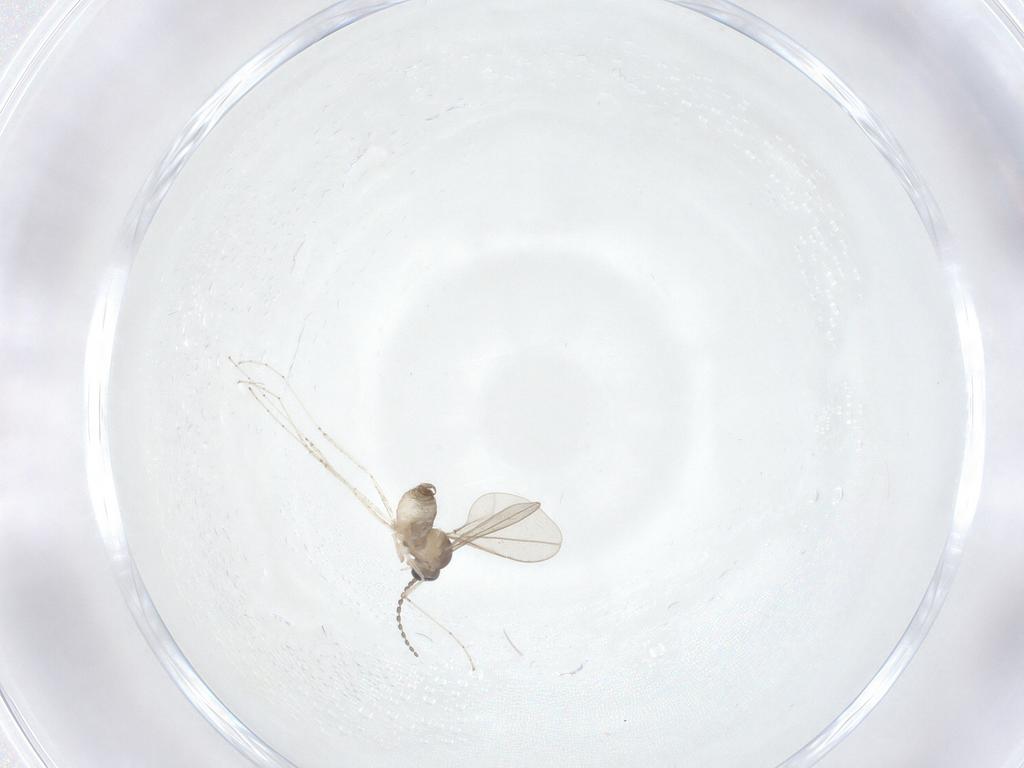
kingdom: Animalia
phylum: Arthropoda
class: Insecta
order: Diptera
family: Cecidomyiidae
